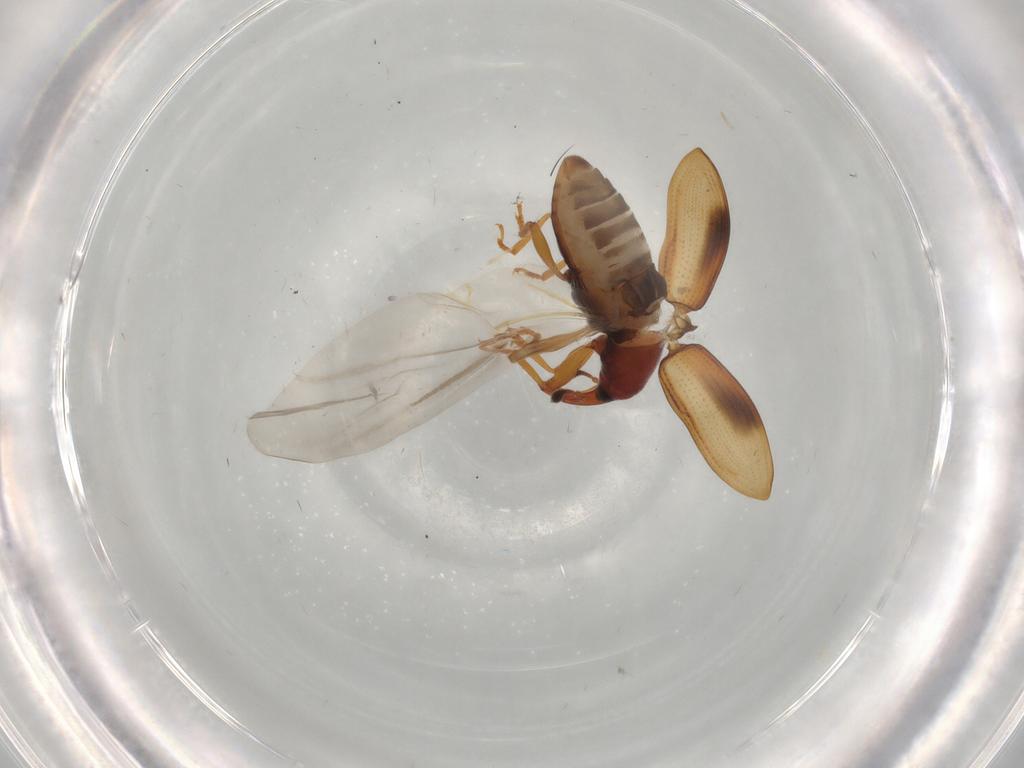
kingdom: Animalia
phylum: Arthropoda
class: Insecta
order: Coleoptera
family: Curculionidae
